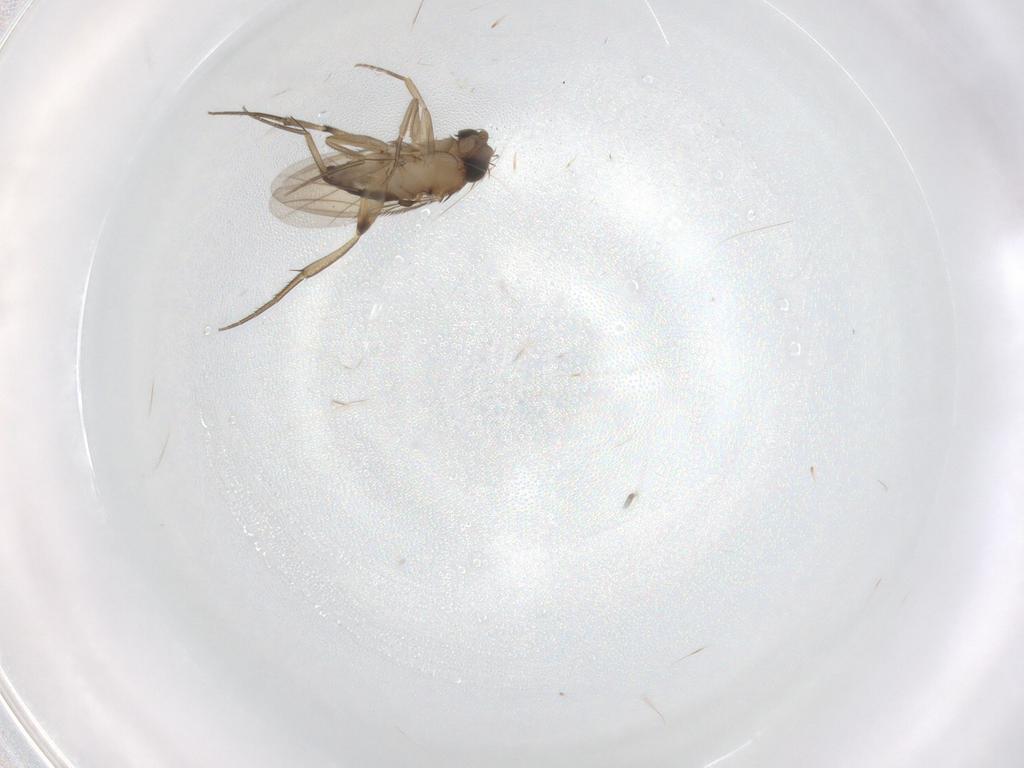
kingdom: Animalia
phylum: Arthropoda
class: Insecta
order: Diptera
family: Phoridae
